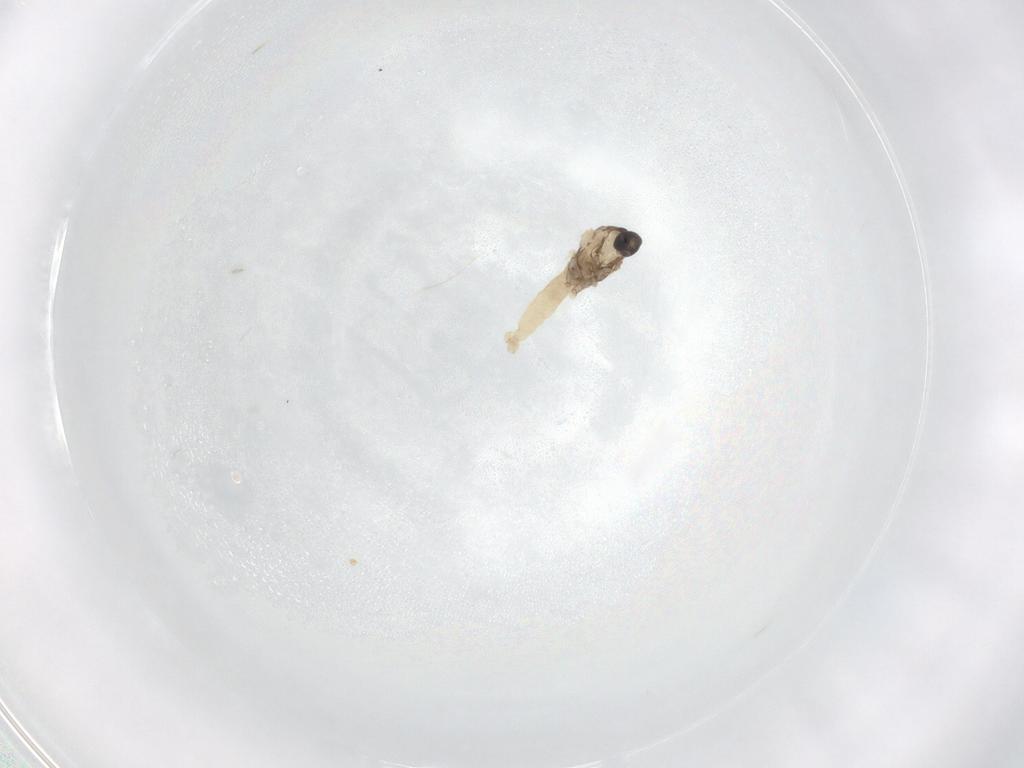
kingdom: Animalia
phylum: Arthropoda
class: Insecta
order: Diptera
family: Cecidomyiidae
